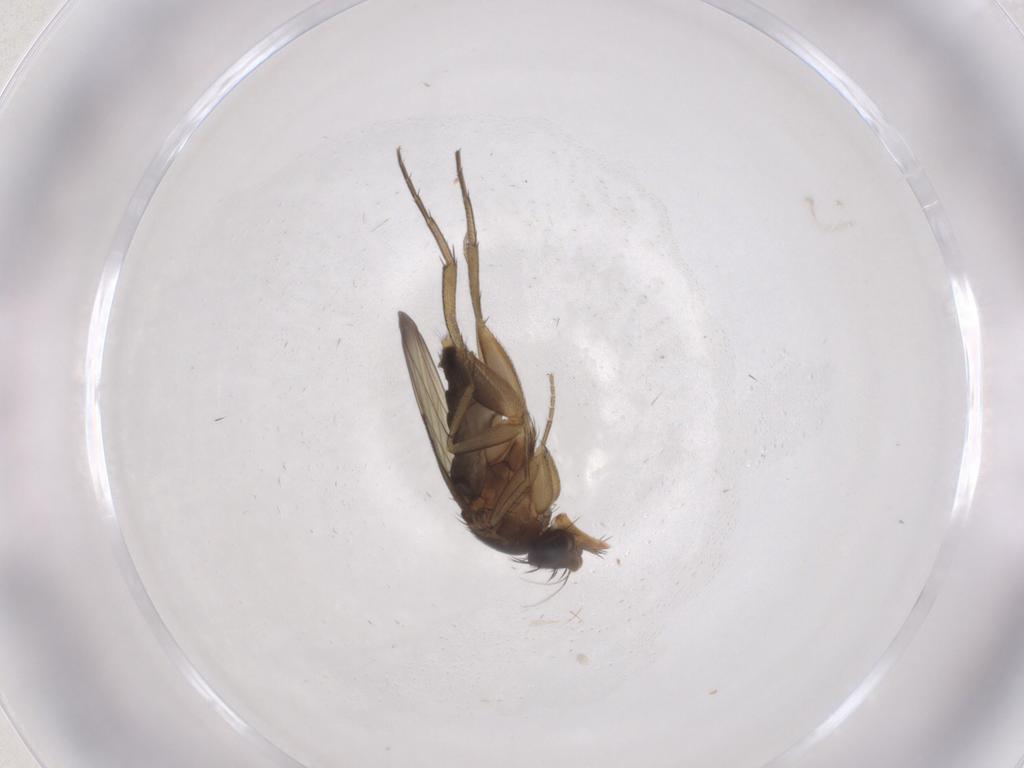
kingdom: Animalia
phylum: Arthropoda
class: Insecta
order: Diptera
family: Phoridae
